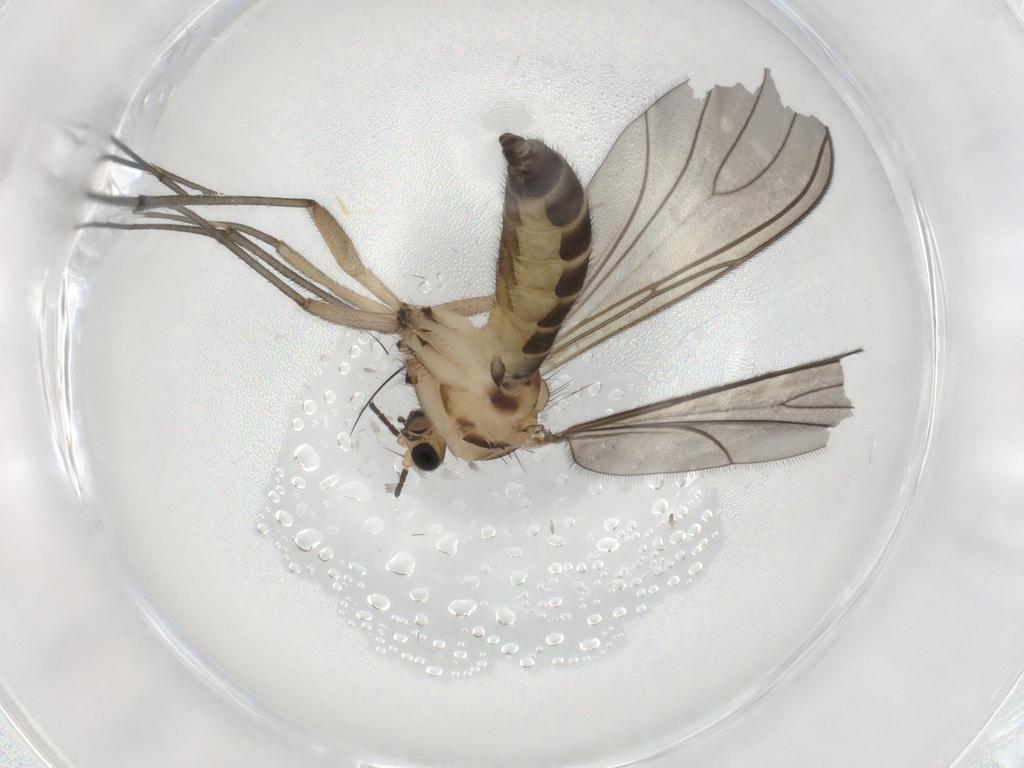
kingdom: Animalia
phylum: Arthropoda
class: Insecta
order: Diptera
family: Sciaridae
